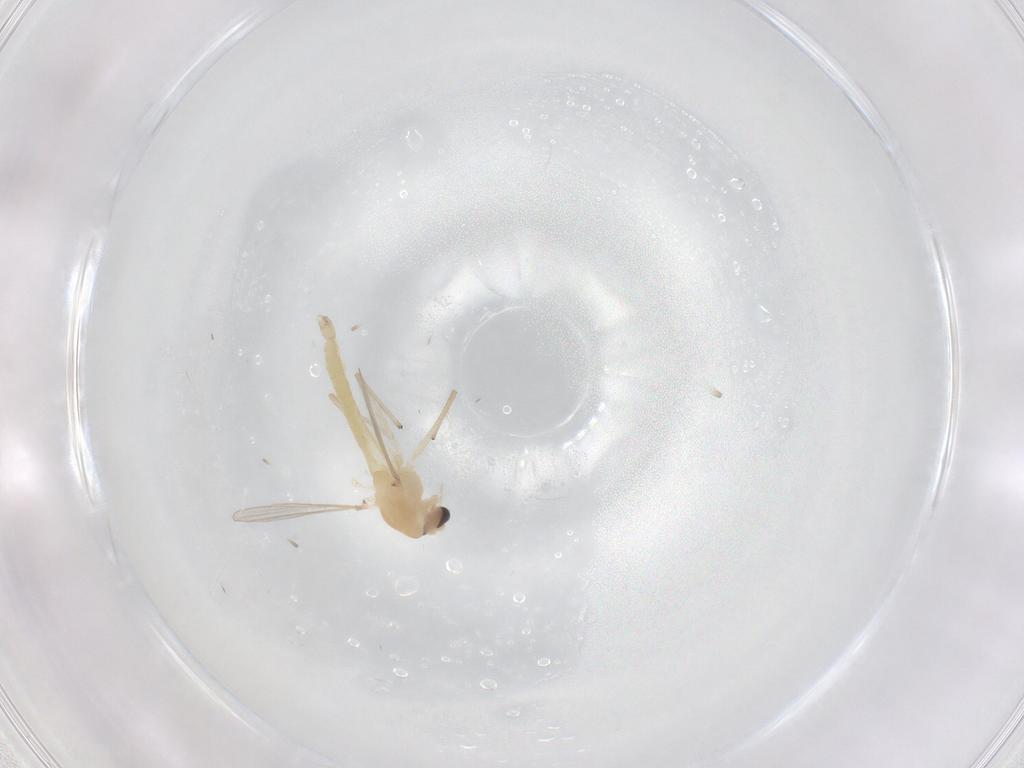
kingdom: Animalia
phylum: Arthropoda
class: Insecta
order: Diptera
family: Chironomidae
